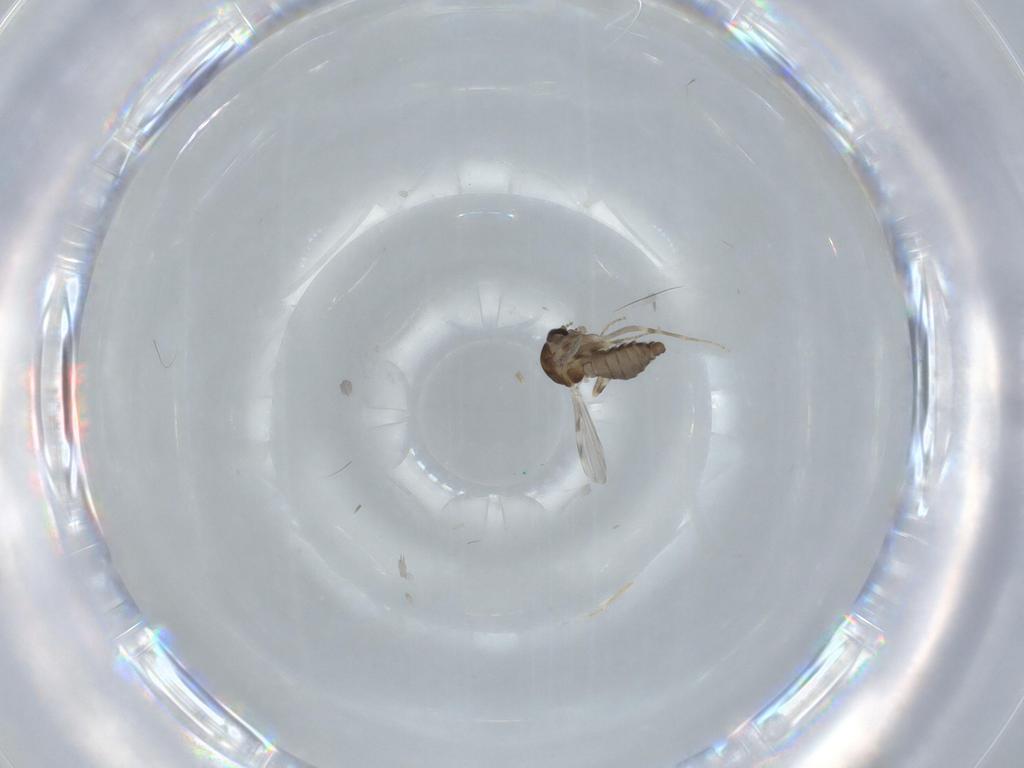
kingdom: Animalia
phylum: Arthropoda
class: Insecta
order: Diptera
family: Ceratopogonidae
